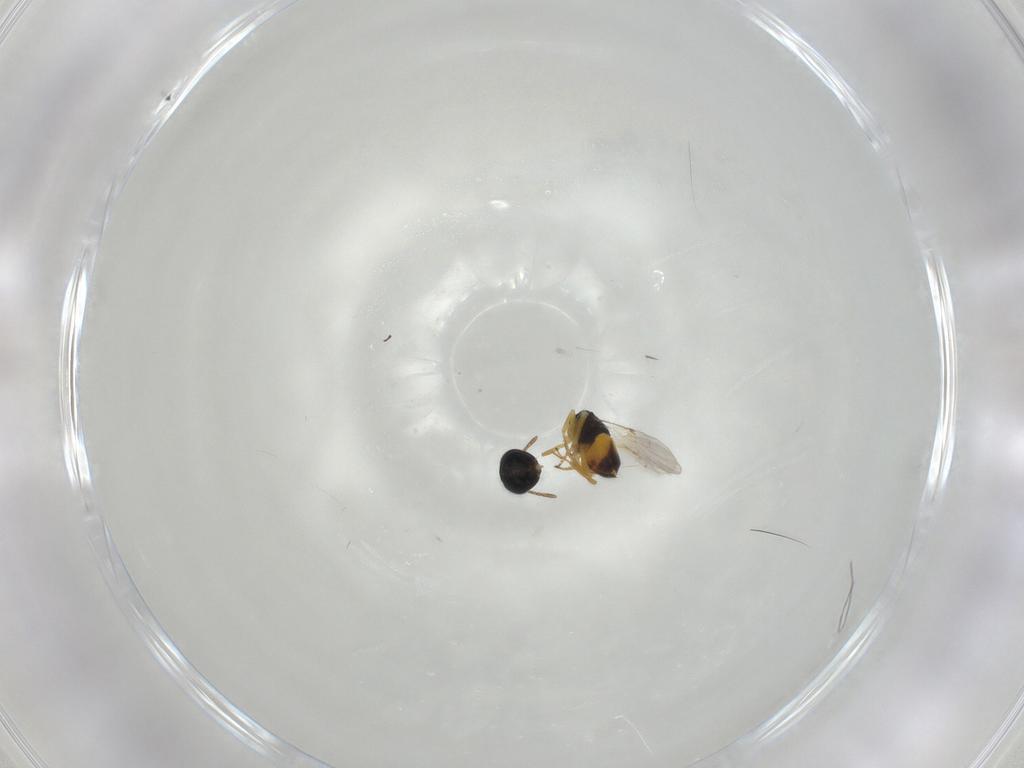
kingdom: Animalia
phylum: Arthropoda
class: Insecta
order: Hymenoptera
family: Encyrtidae
